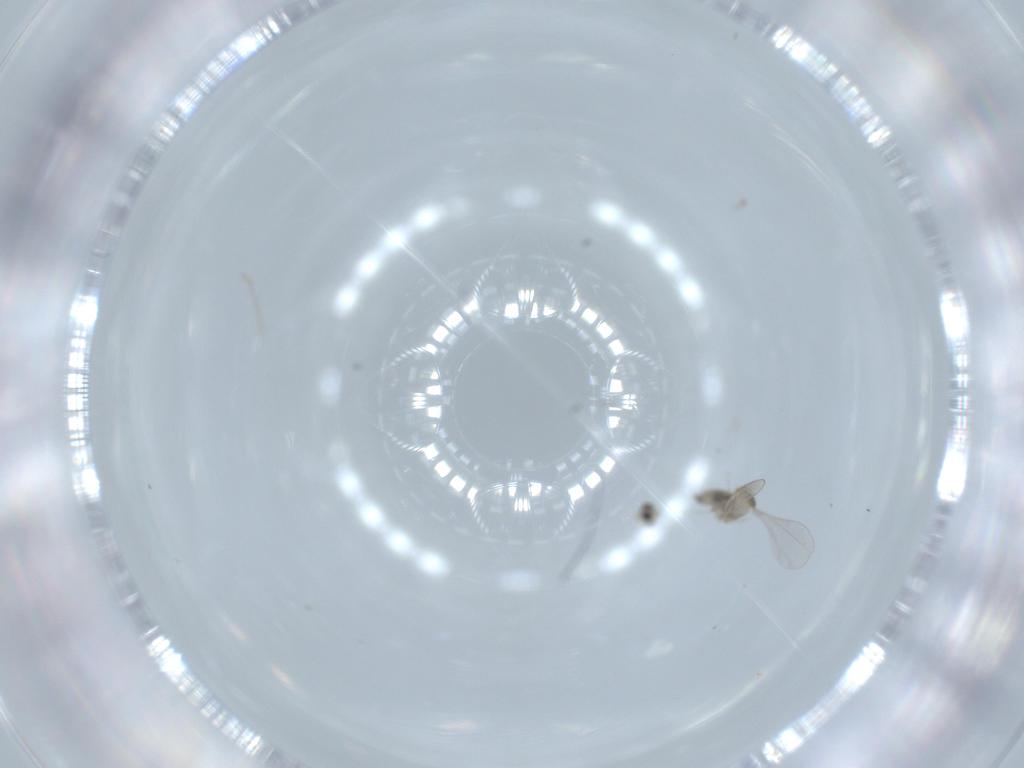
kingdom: Animalia
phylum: Arthropoda
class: Insecta
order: Diptera
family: Cecidomyiidae
